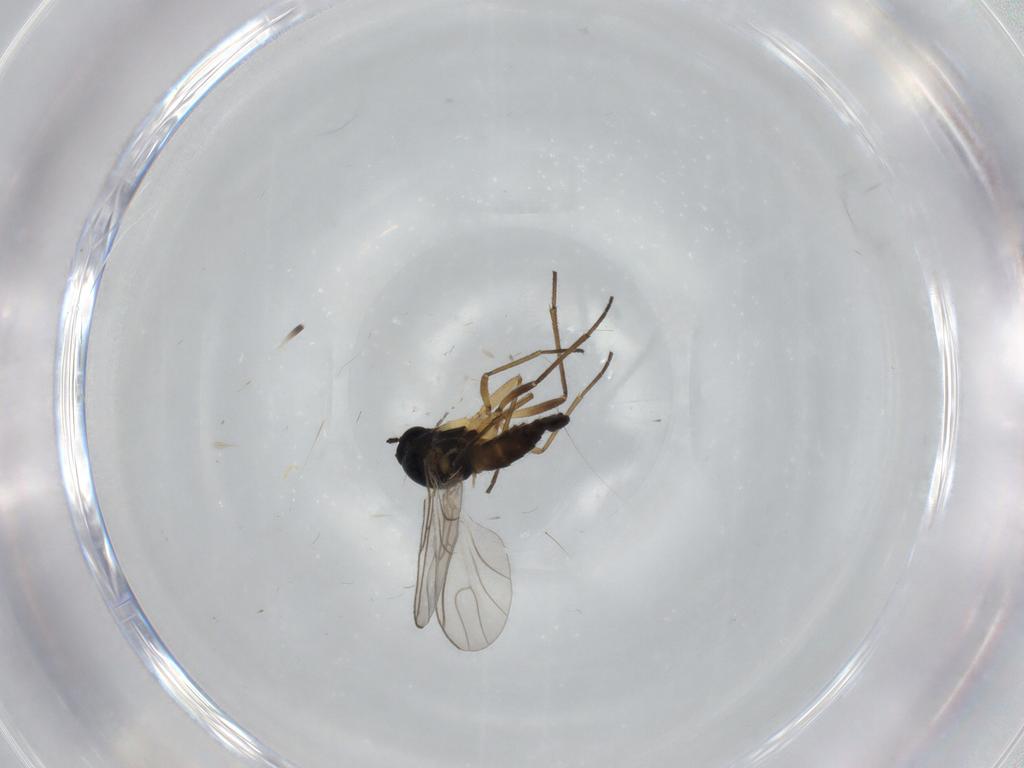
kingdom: Animalia
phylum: Arthropoda
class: Insecta
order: Diptera
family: Sciaridae
